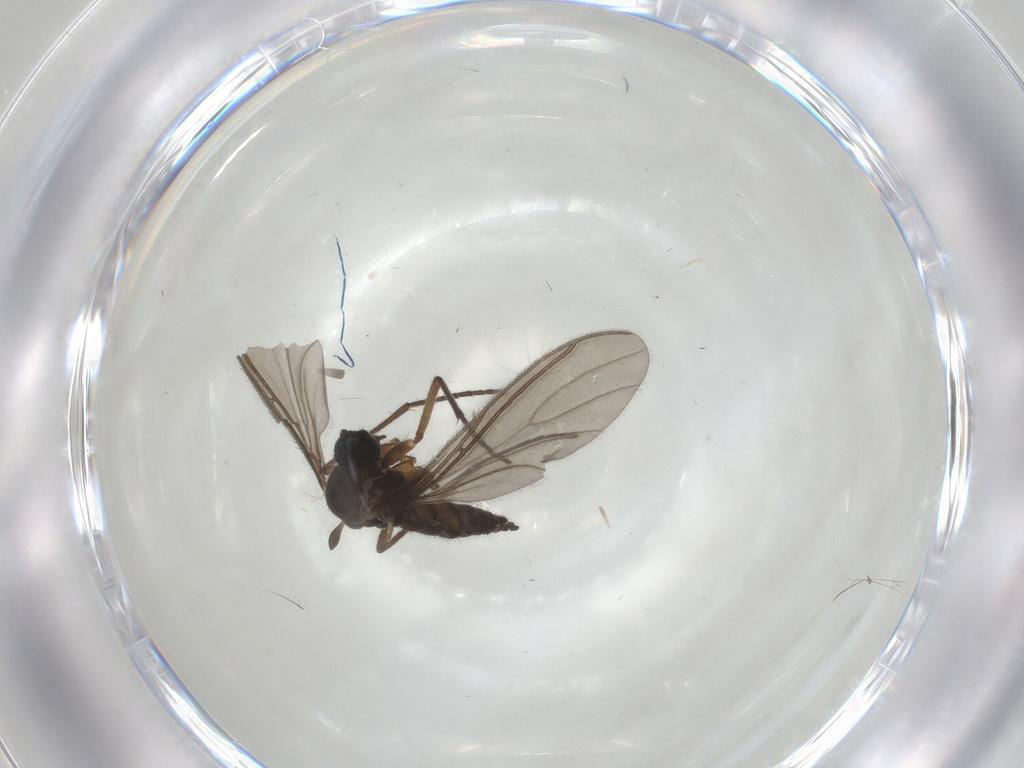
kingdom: Animalia
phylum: Arthropoda
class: Insecta
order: Diptera
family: Sciaridae
